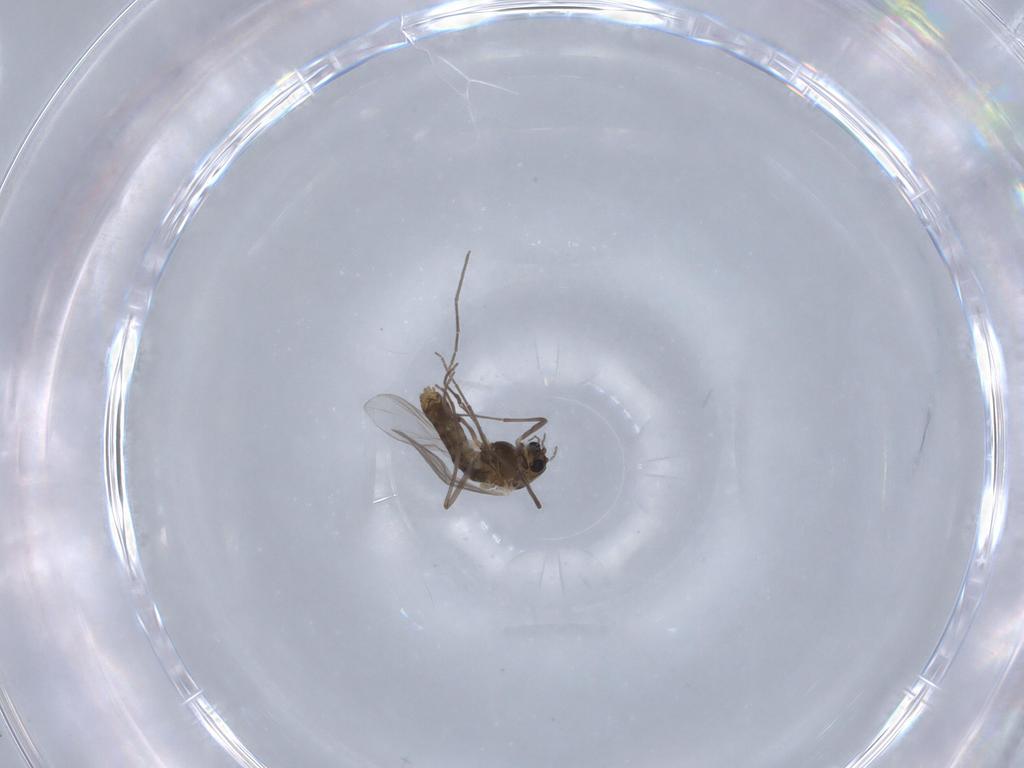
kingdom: Animalia
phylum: Arthropoda
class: Insecta
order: Diptera
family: Chironomidae
